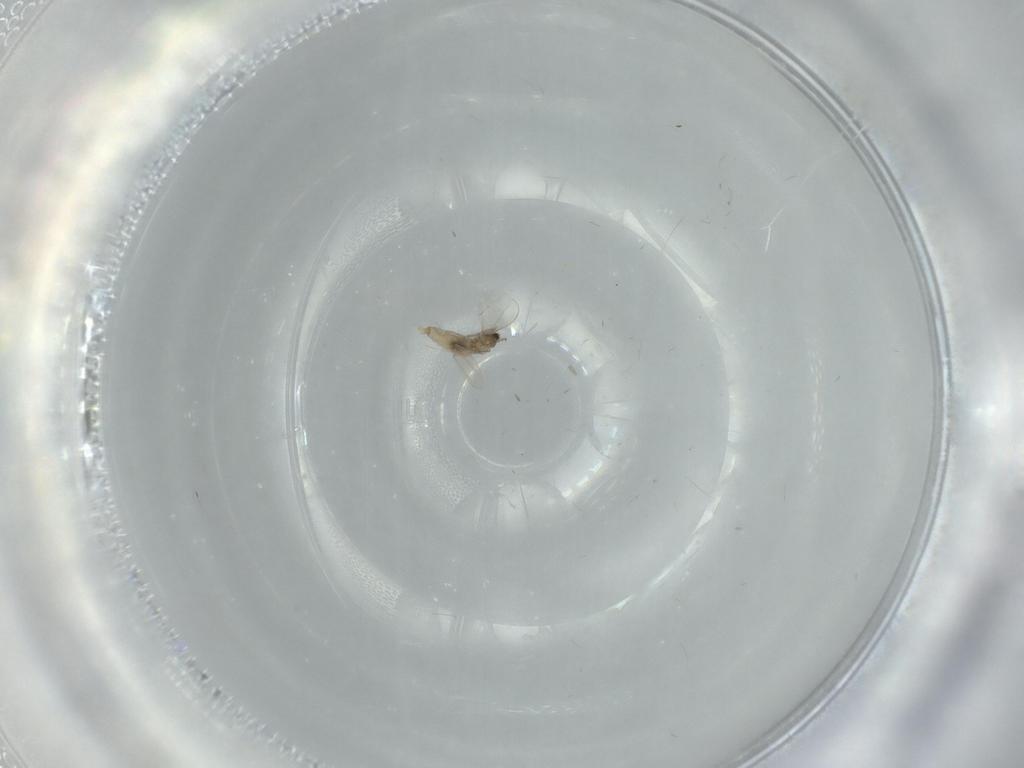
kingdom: Animalia
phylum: Arthropoda
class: Insecta
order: Diptera
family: Cecidomyiidae
